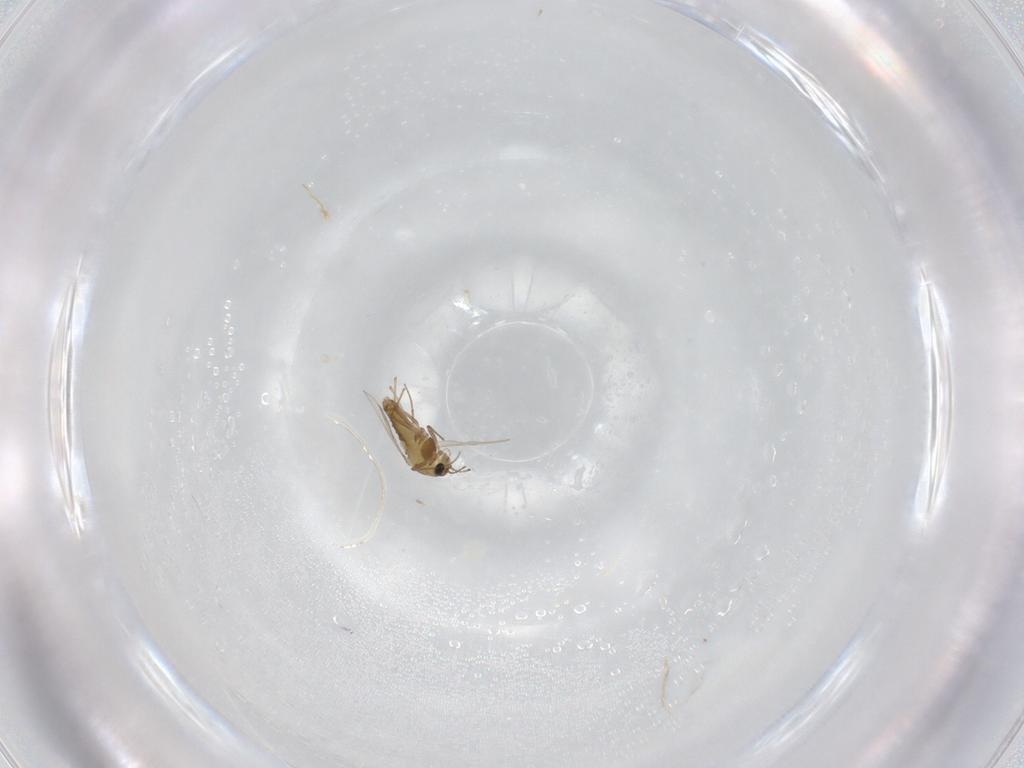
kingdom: Animalia
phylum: Arthropoda
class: Insecta
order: Diptera
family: Chironomidae
